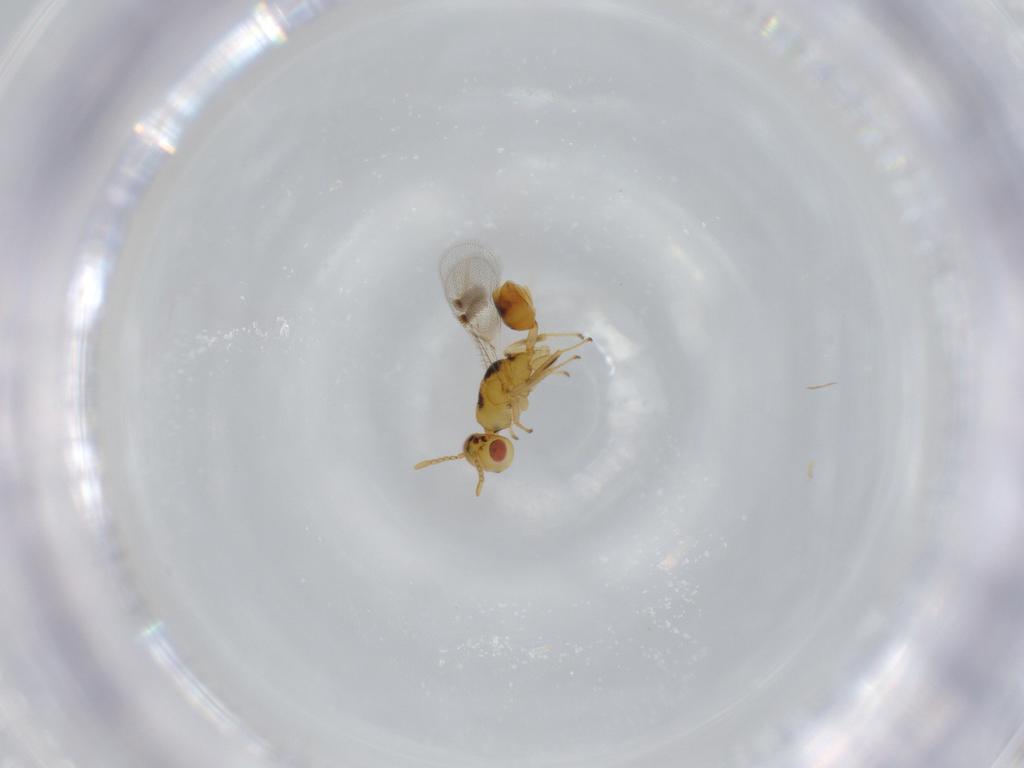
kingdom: Animalia
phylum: Arthropoda
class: Insecta
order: Hymenoptera
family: Eurytomidae
